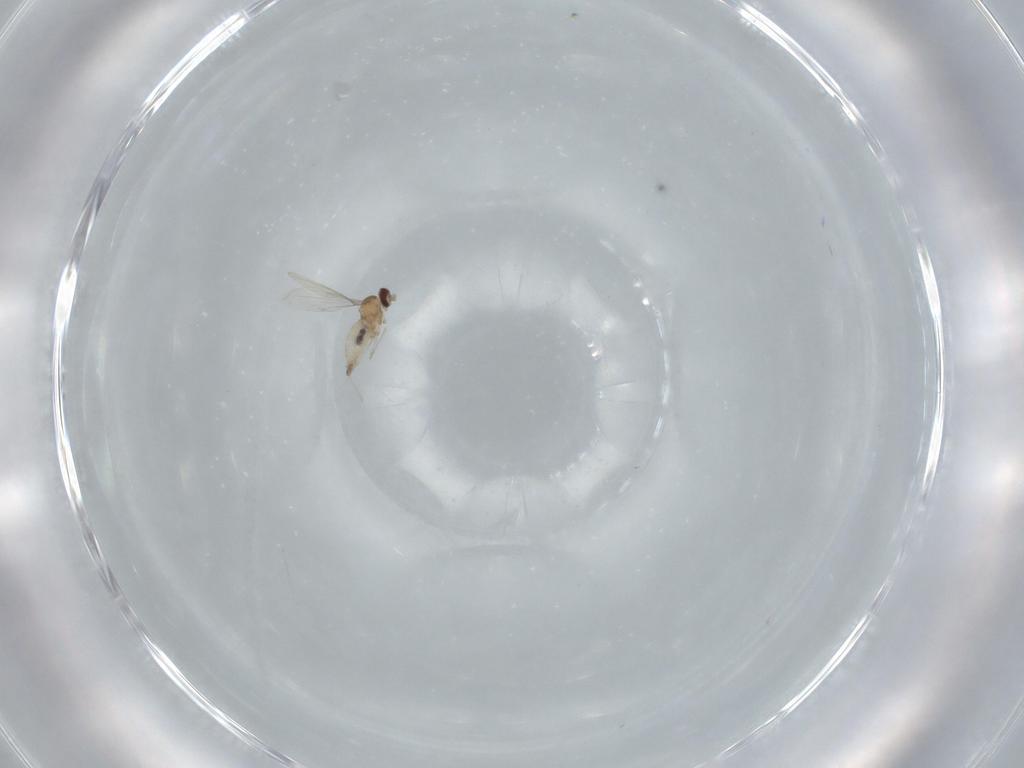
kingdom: Animalia
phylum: Arthropoda
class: Insecta
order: Diptera
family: Cecidomyiidae
